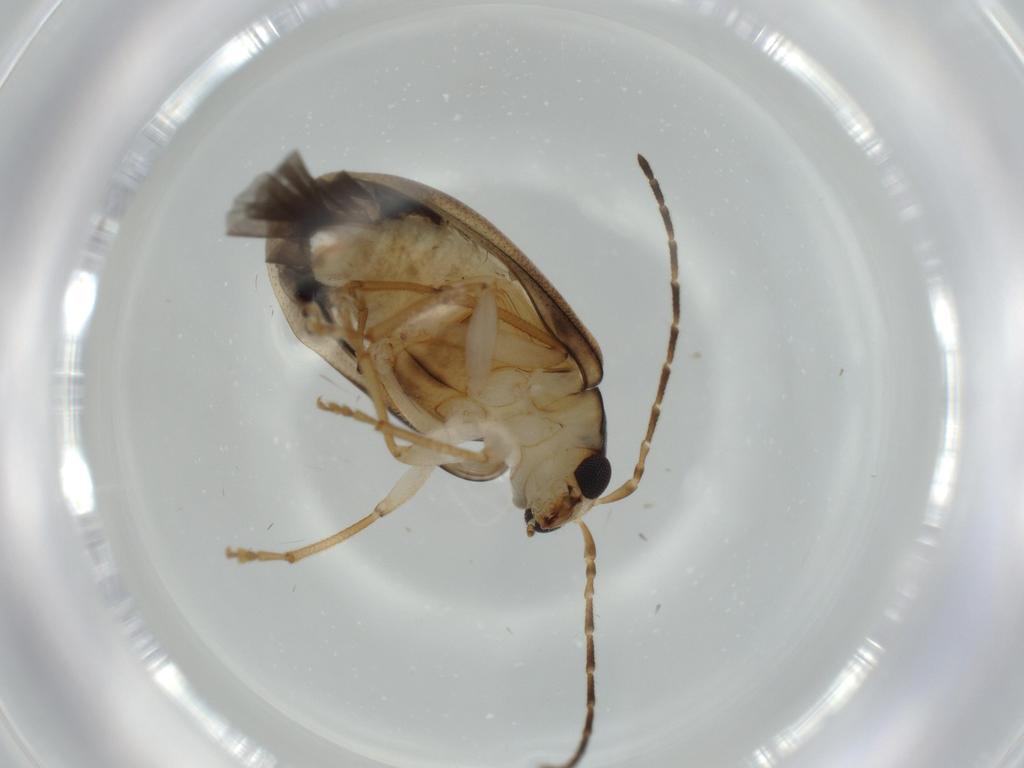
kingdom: Animalia
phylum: Arthropoda
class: Insecta
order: Coleoptera
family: Chrysomelidae
